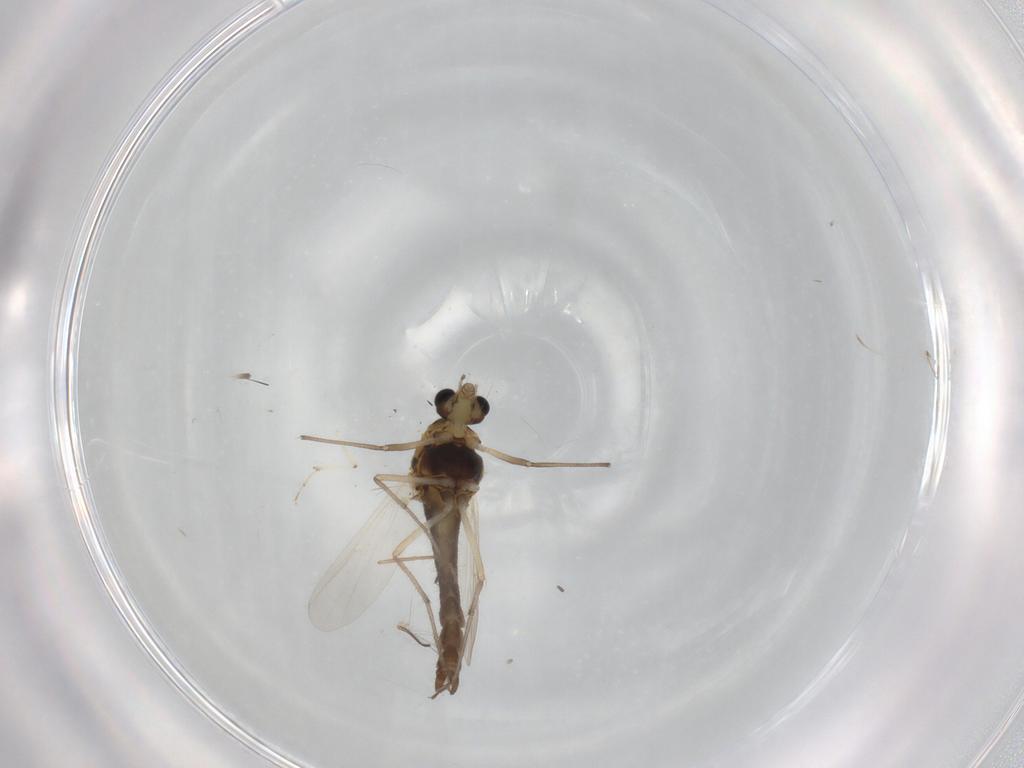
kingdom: Animalia
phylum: Arthropoda
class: Insecta
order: Diptera
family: Chironomidae
